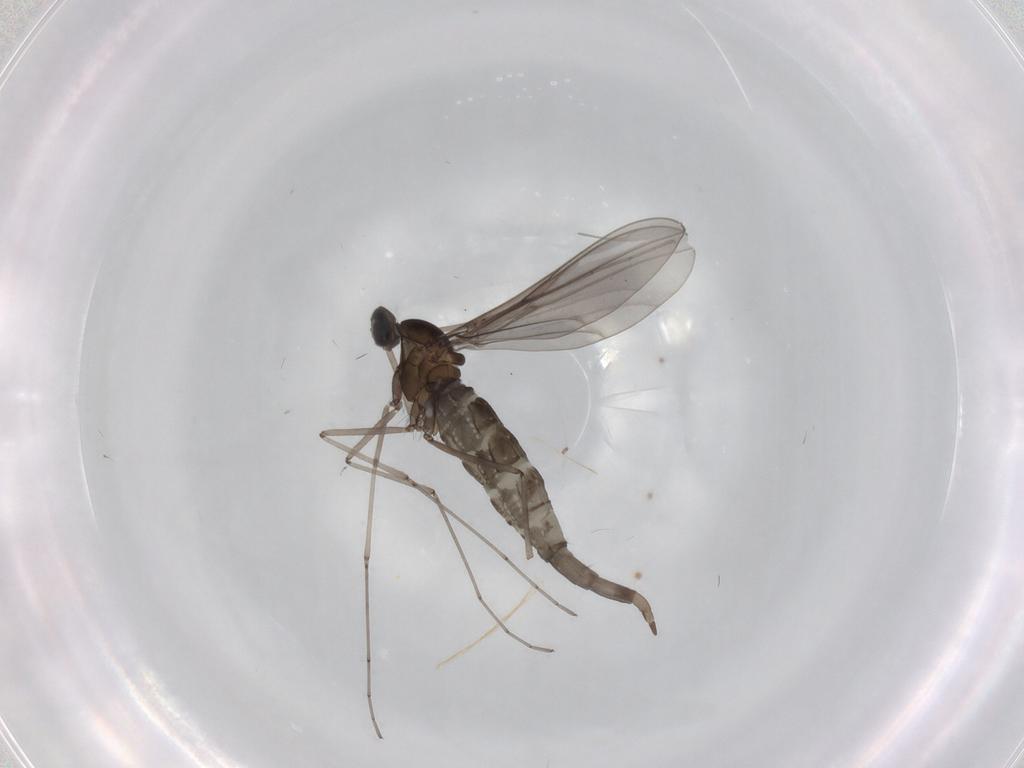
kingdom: Animalia
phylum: Arthropoda
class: Insecta
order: Diptera
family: Cecidomyiidae
